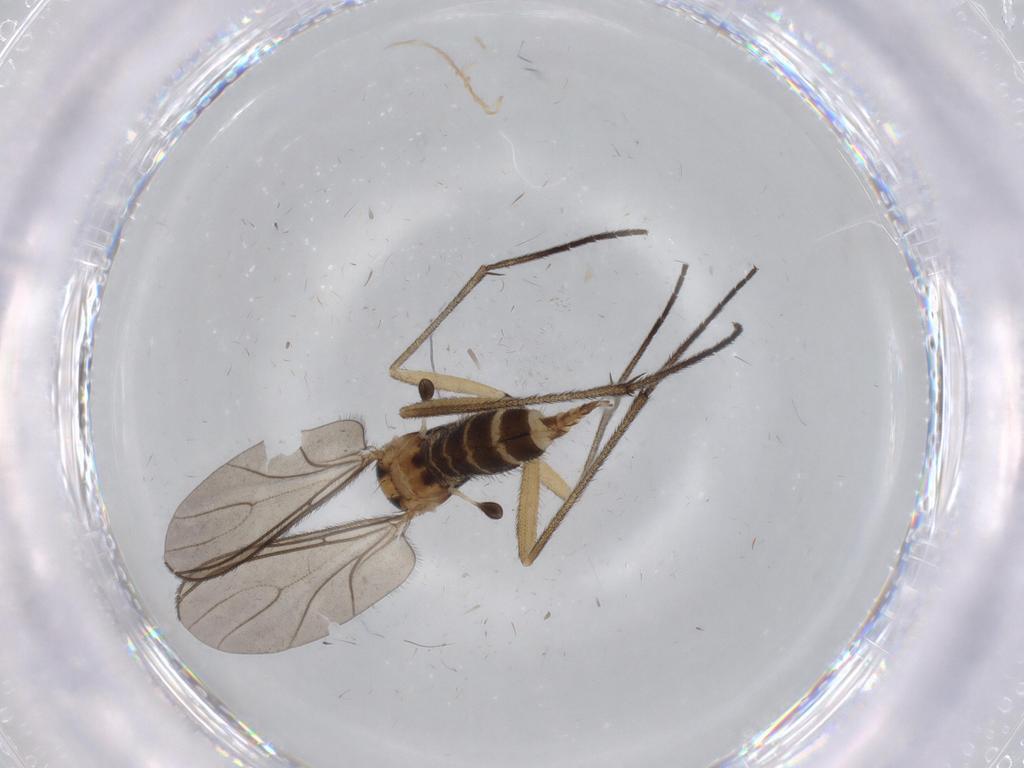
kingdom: Animalia
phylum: Arthropoda
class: Insecta
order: Diptera
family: Sciaridae
